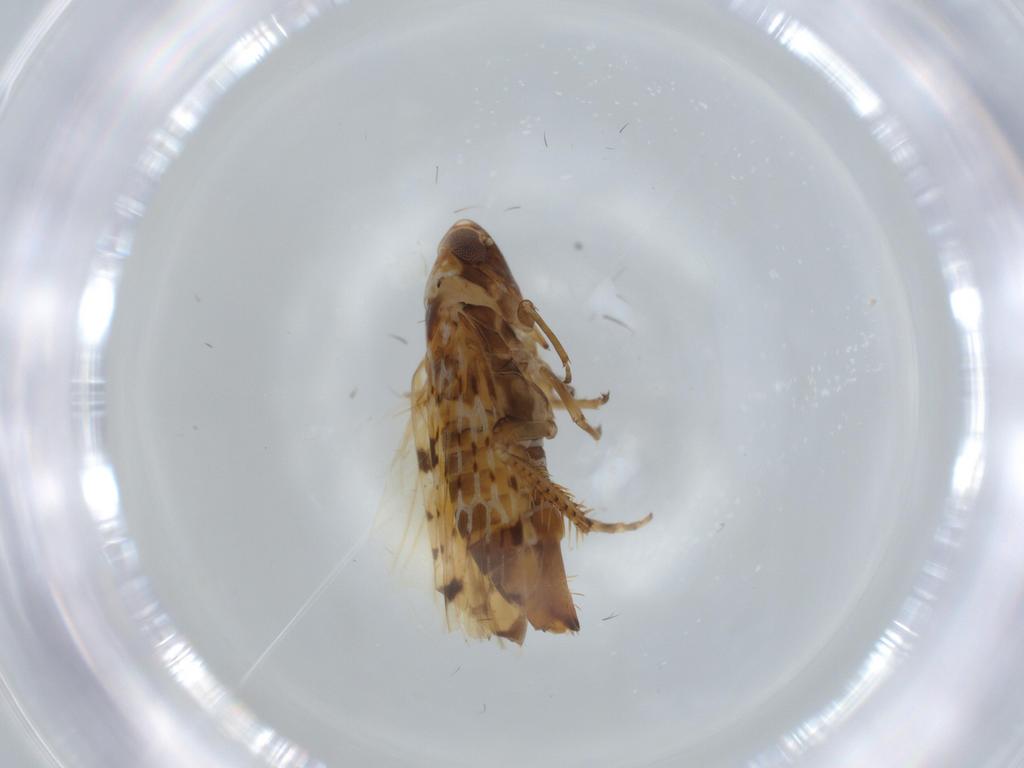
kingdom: Animalia
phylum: Arthropoda
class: Insecta
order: Hemiptera
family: Cicadellidae
